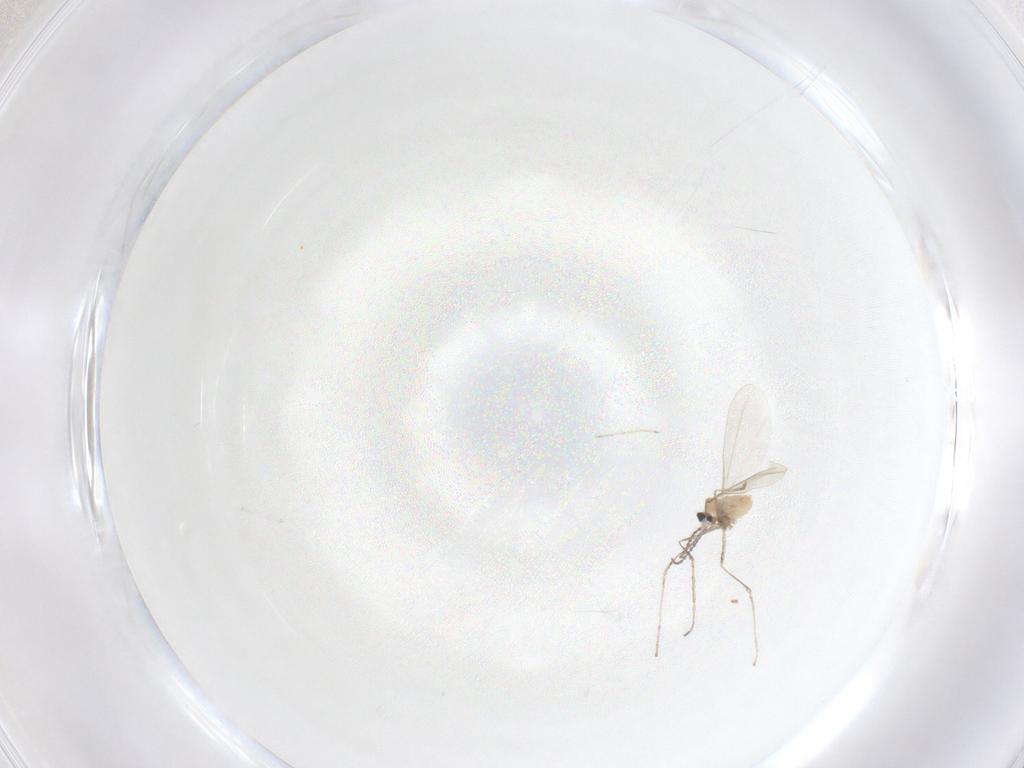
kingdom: Animalia
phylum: Arthropoda
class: Insecta
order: Diptera
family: Cecidomyiidae
